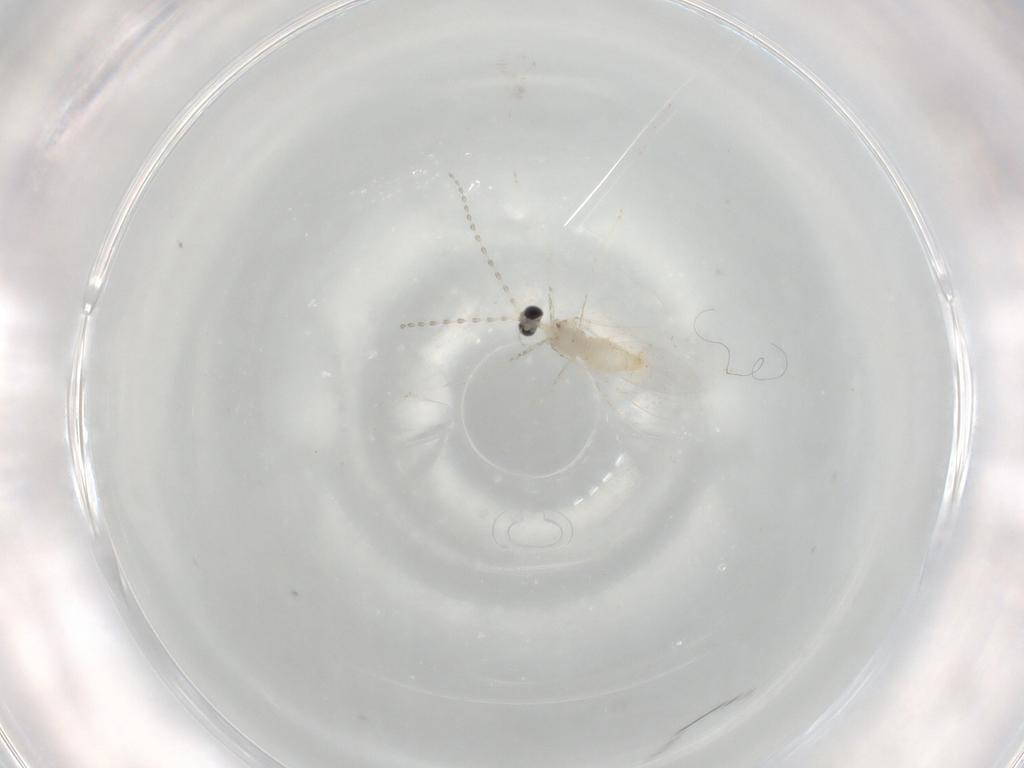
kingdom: Animalia
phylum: Arthropoda
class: Insecta
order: Diptera
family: Cecidomyiidae
